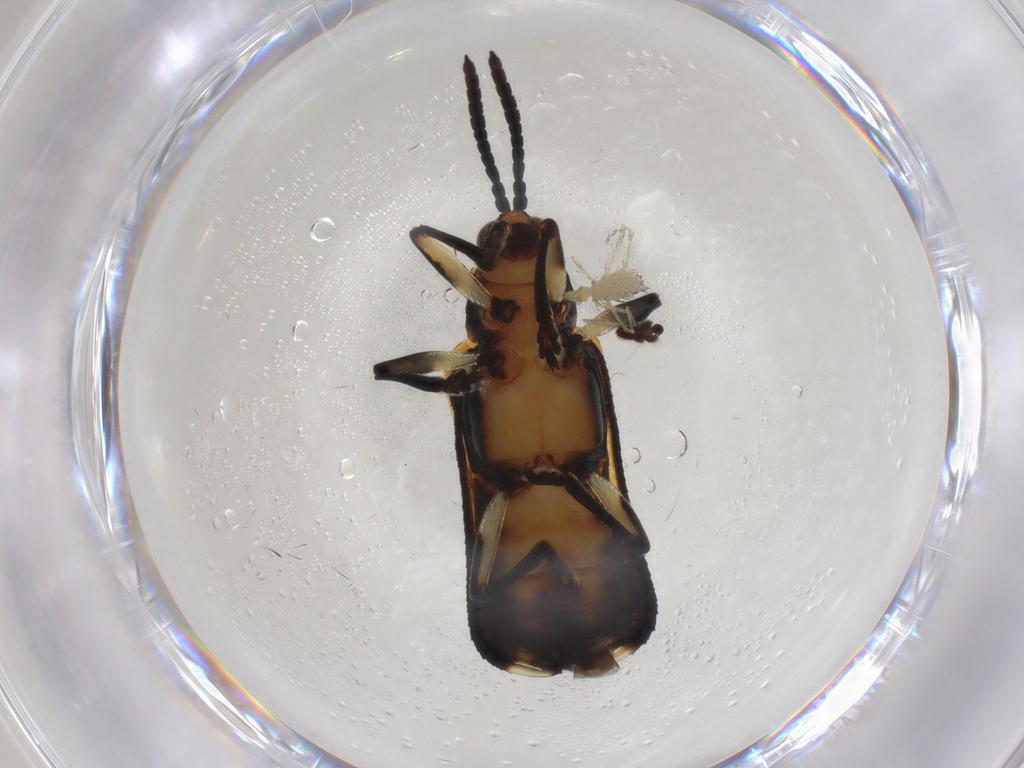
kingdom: Animalia
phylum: Arthropoda
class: Insecta
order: Coleoptera
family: Chrysomelidae
